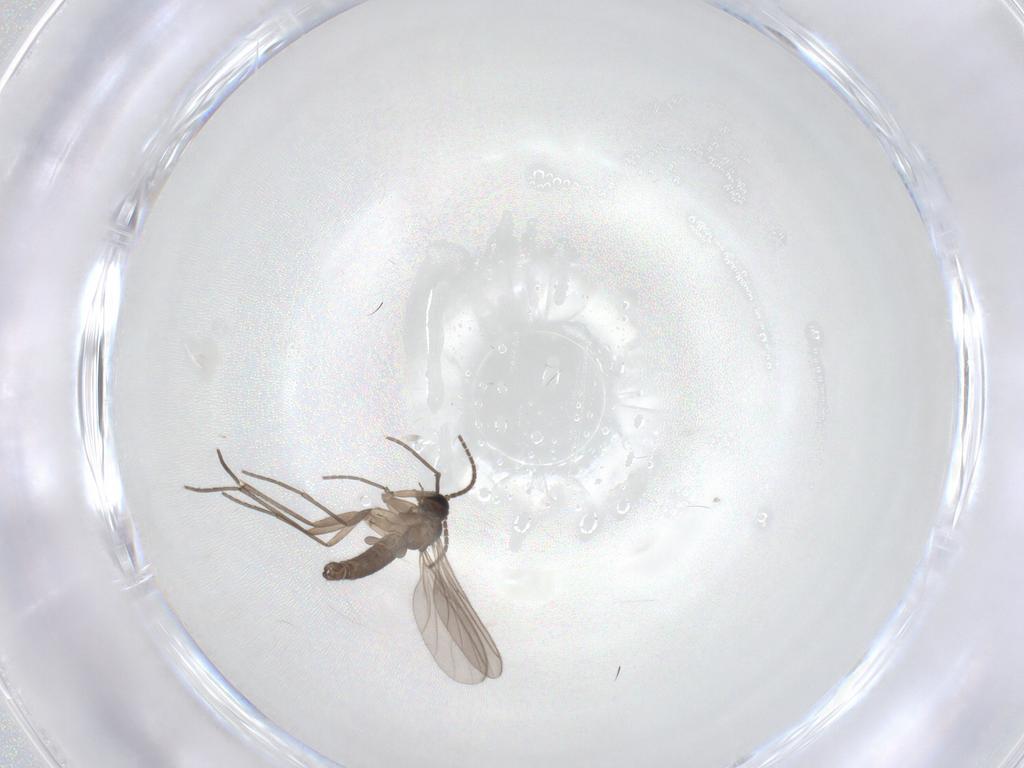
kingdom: Animalia
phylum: Arthropoda
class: Insecta
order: Diptera
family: Sciaridae
